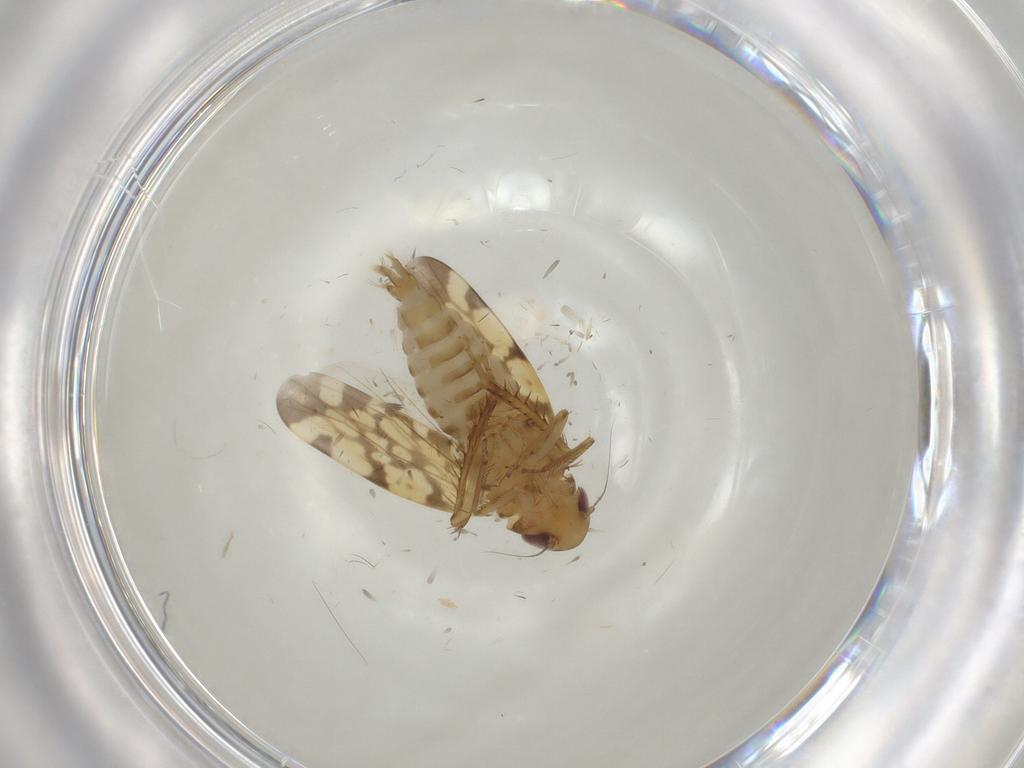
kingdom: Animalia
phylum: Arthropoda
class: Insecta
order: Hemiptera
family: Cicadellidae
